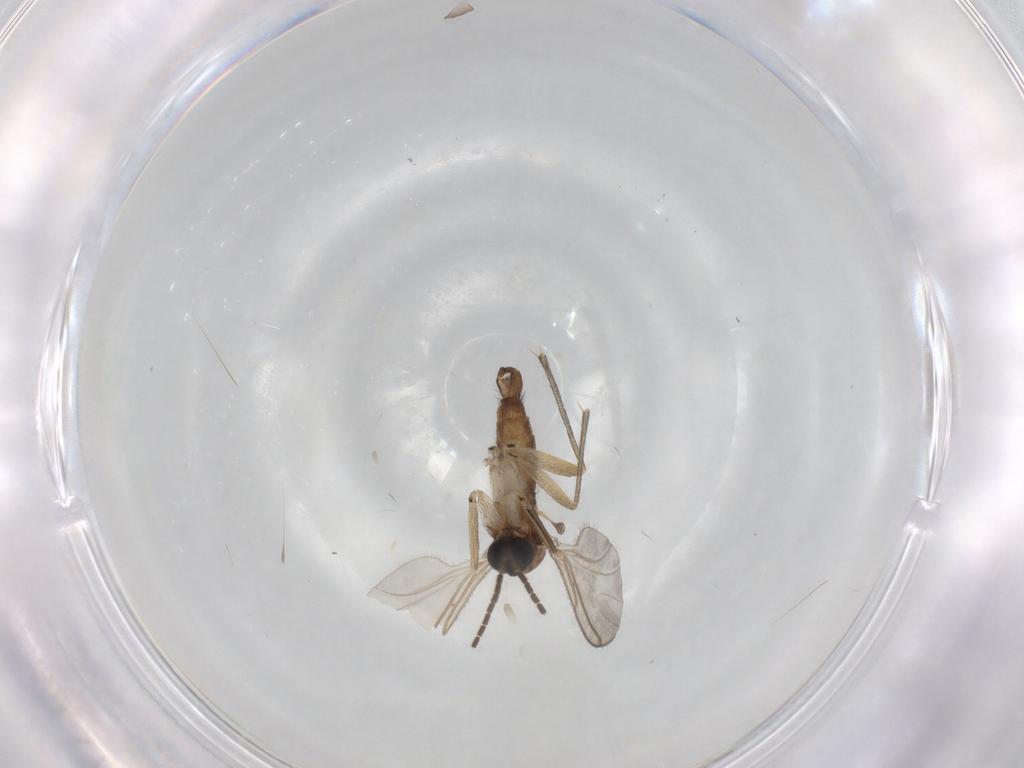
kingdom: Animalia
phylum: Arthropoda
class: Insecta
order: Diptera
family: Sciaridae
